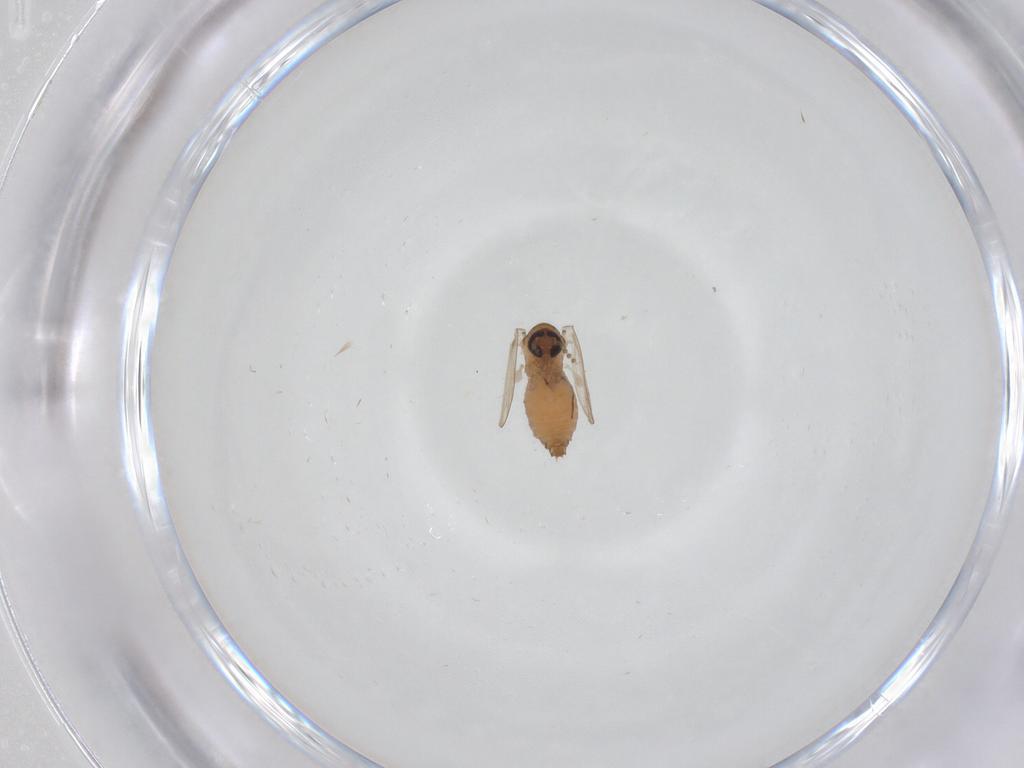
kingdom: Animalia
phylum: Arthropoda
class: Insecta
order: Diptera
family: Psychodidae
